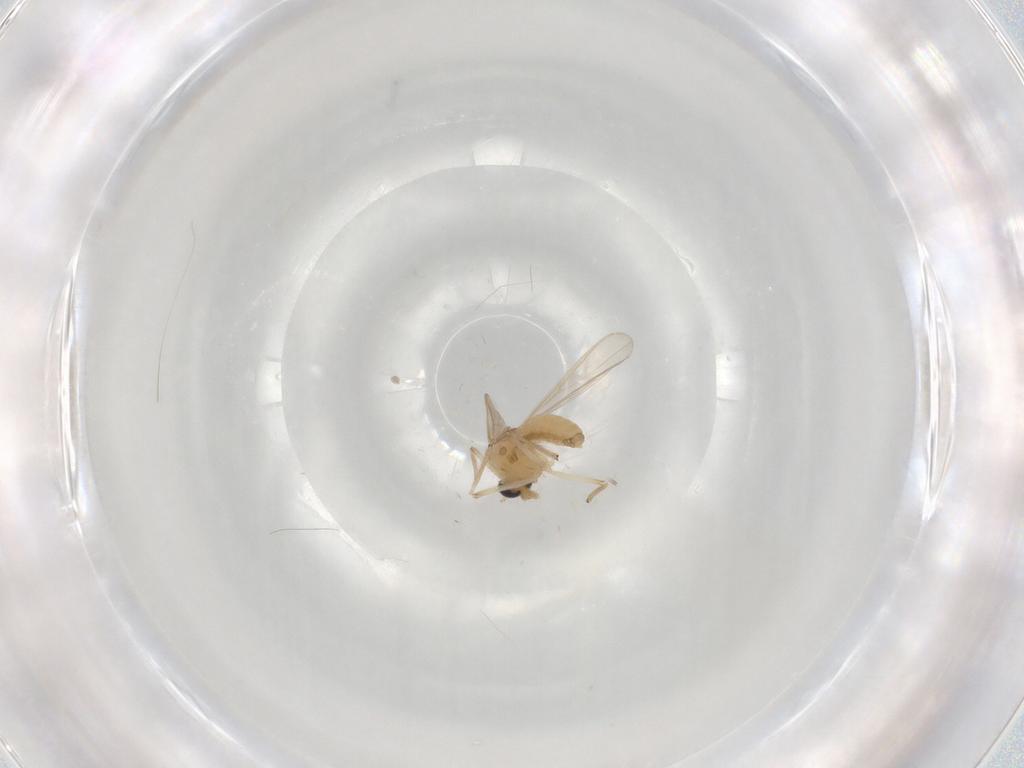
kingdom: Animalia
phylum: Arthropoda
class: Insecta
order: Diptera
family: Chironomidae
